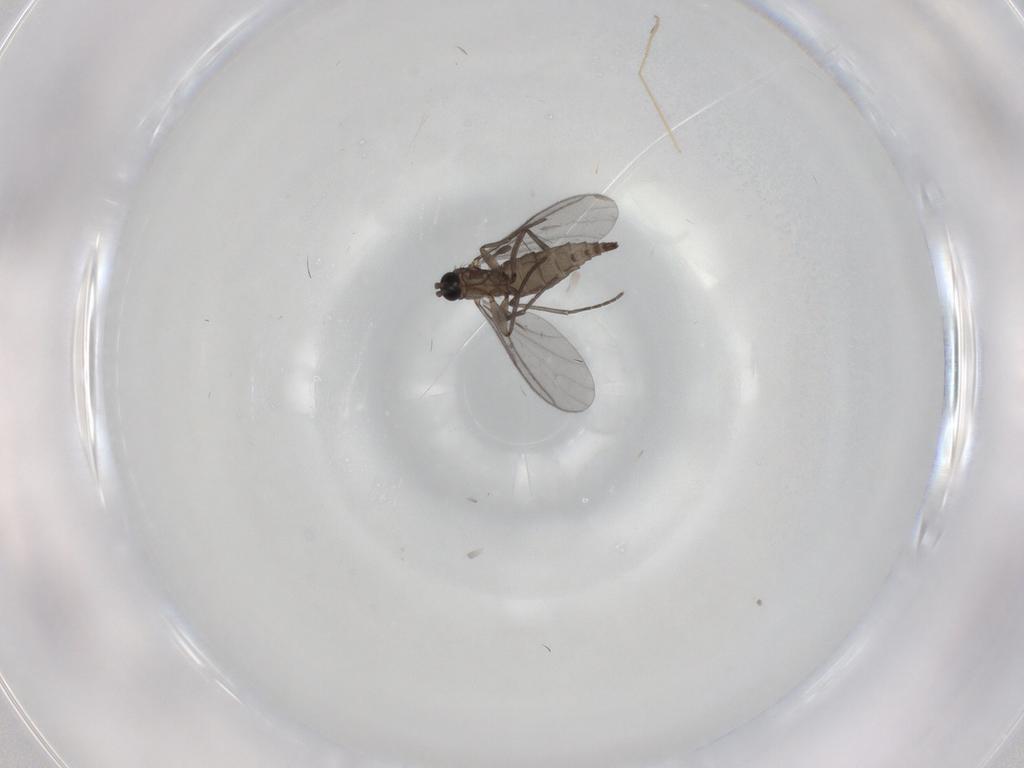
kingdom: Animalia
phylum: Arthropoda
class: Insecta
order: Diptera
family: Chironomidae
